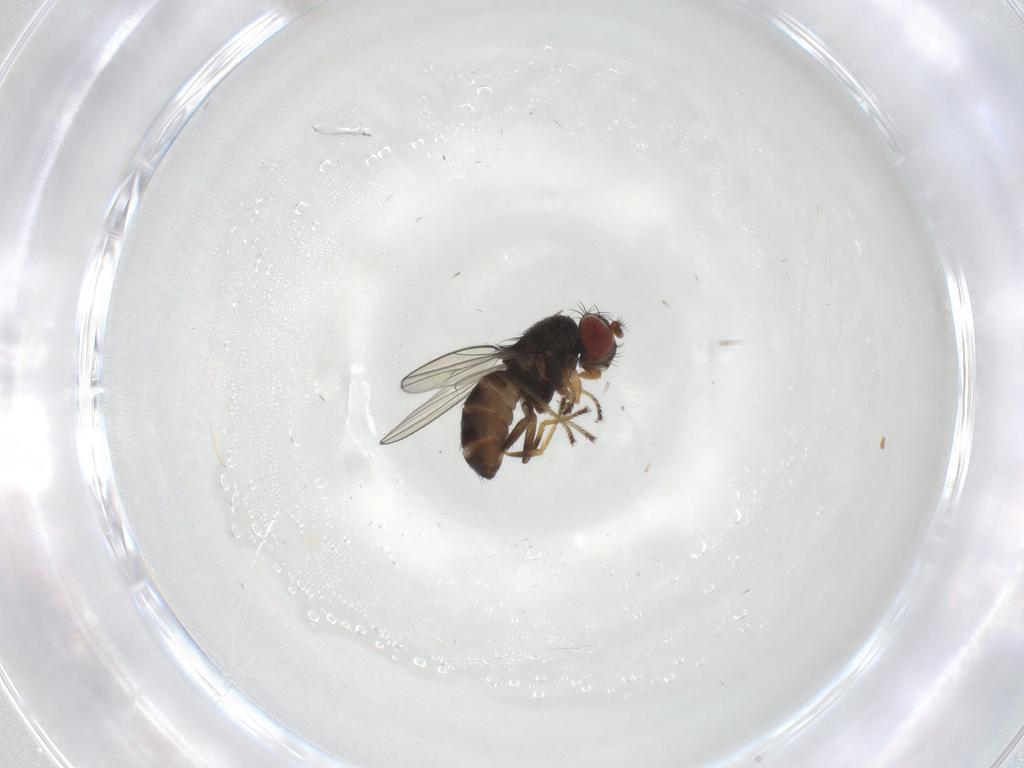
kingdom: Animalia
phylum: Arthropoda
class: Insecta
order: Diptera
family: Ephydridae
